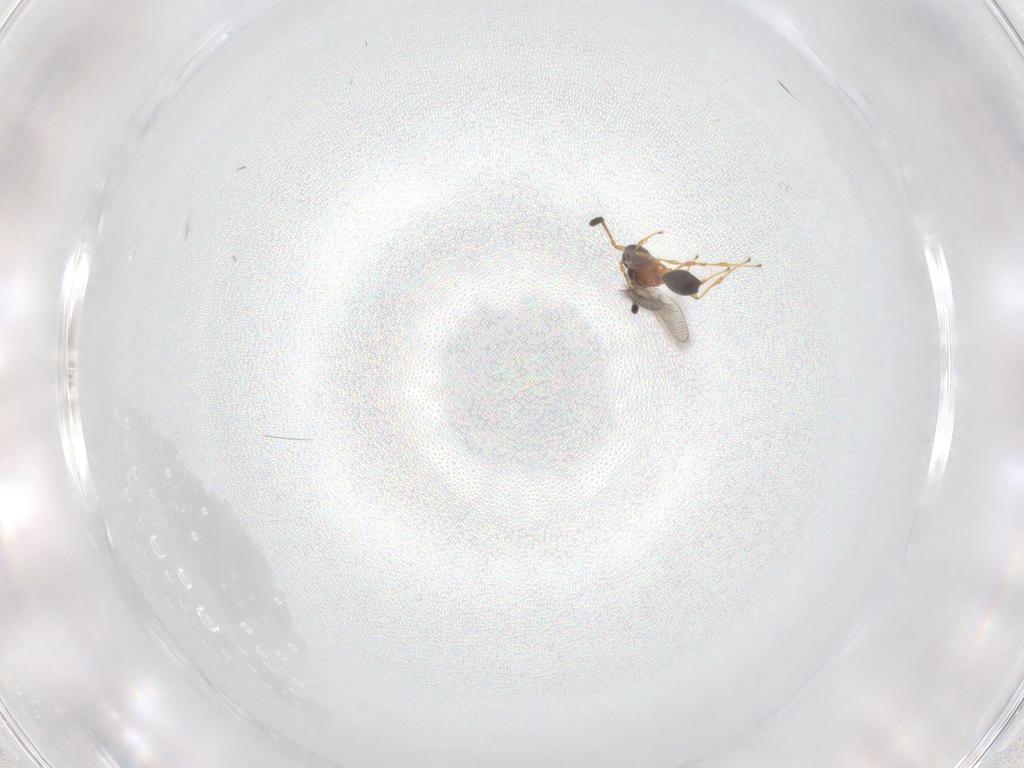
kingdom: Animalia
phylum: Arthropoda
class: Insecta
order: Hymenoptera
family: Diapriidae
